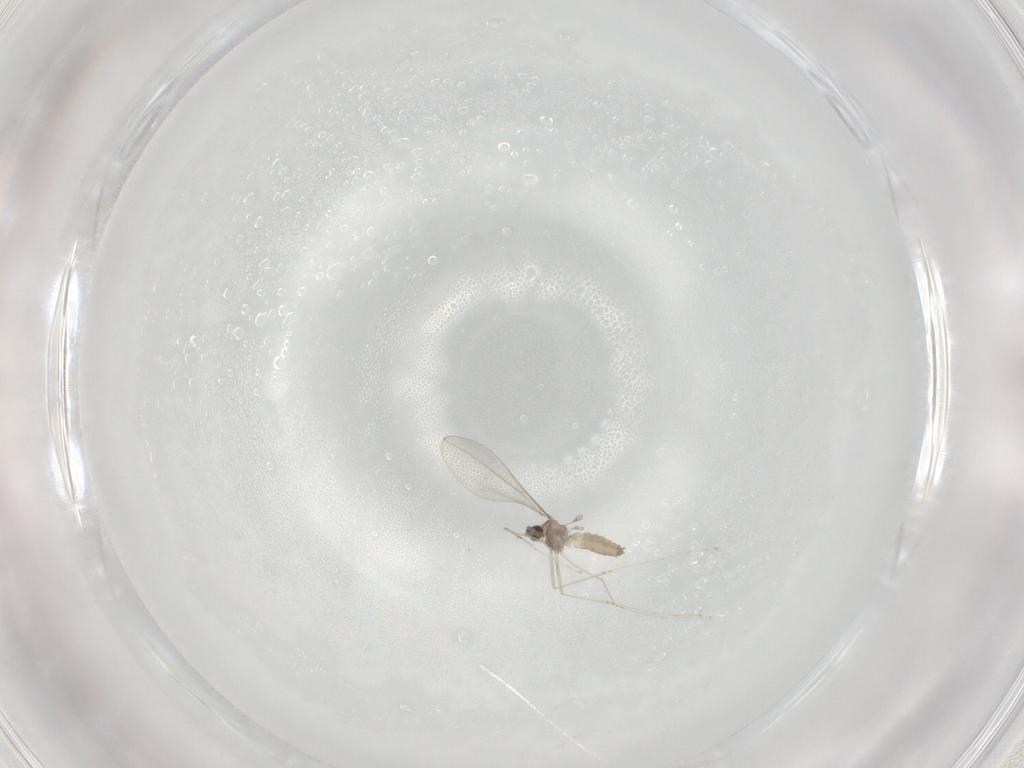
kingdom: Animalia
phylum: Arthropoda
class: Insecta
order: Diptera
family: Cecidomyiidae
